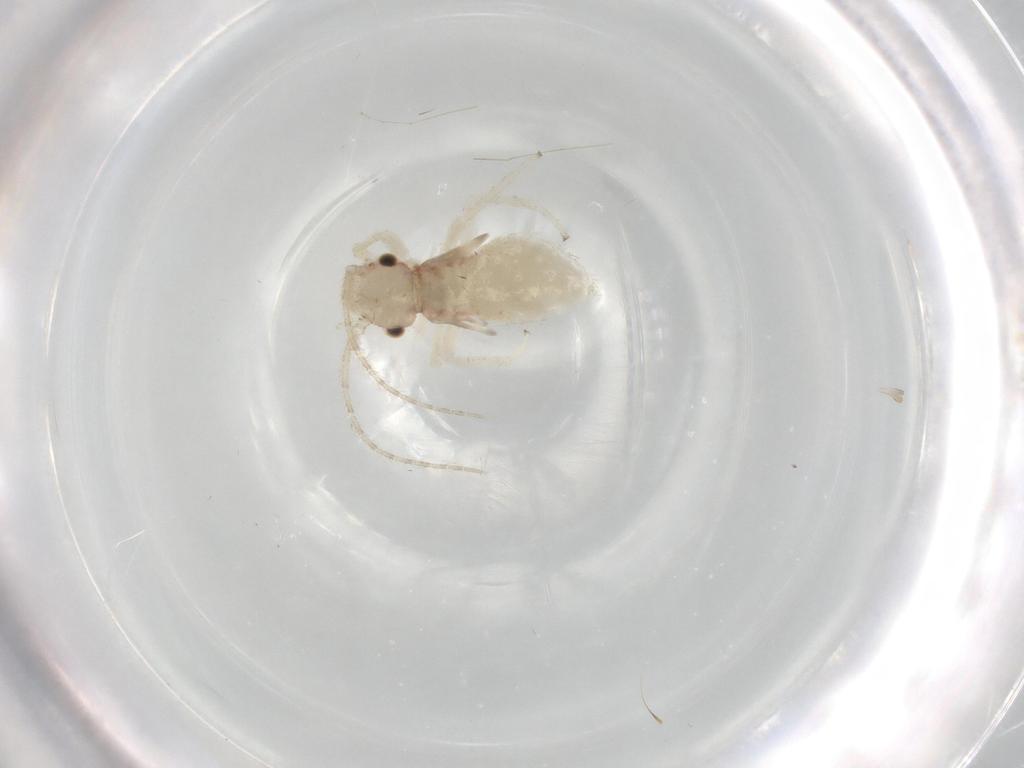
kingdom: Animalia
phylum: Arthropoda
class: Insecta
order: Psocodea
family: Amphipsocidae
